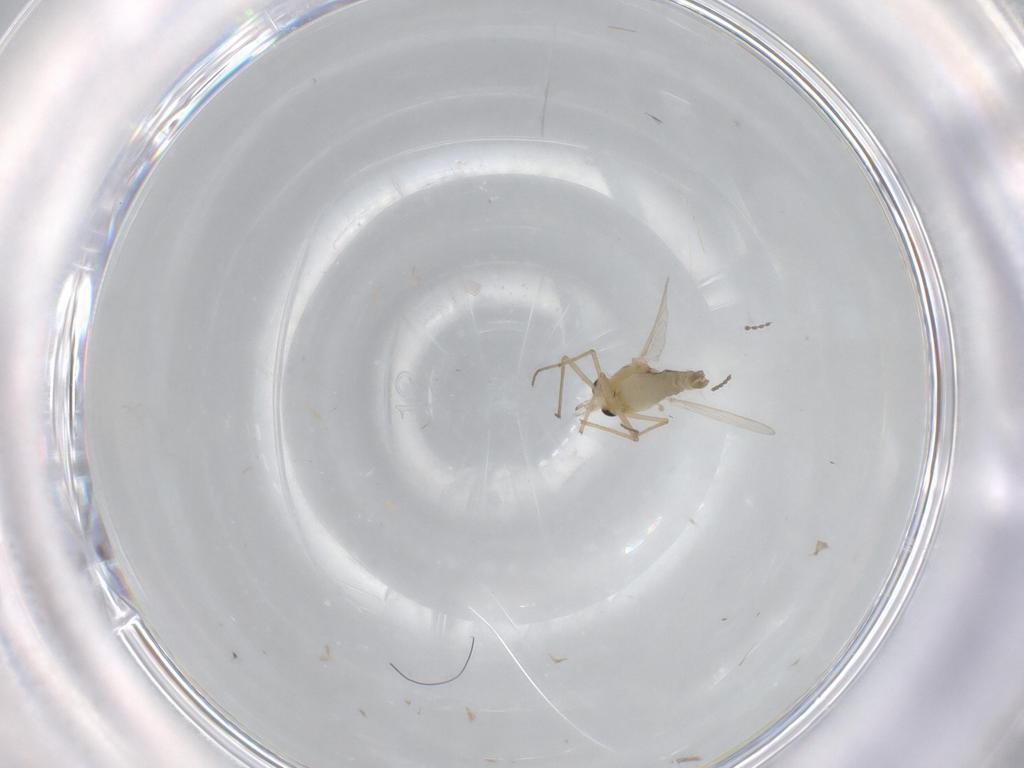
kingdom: Animalia
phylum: Arthropoda
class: Insecta
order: Diptera
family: Chironomidae
